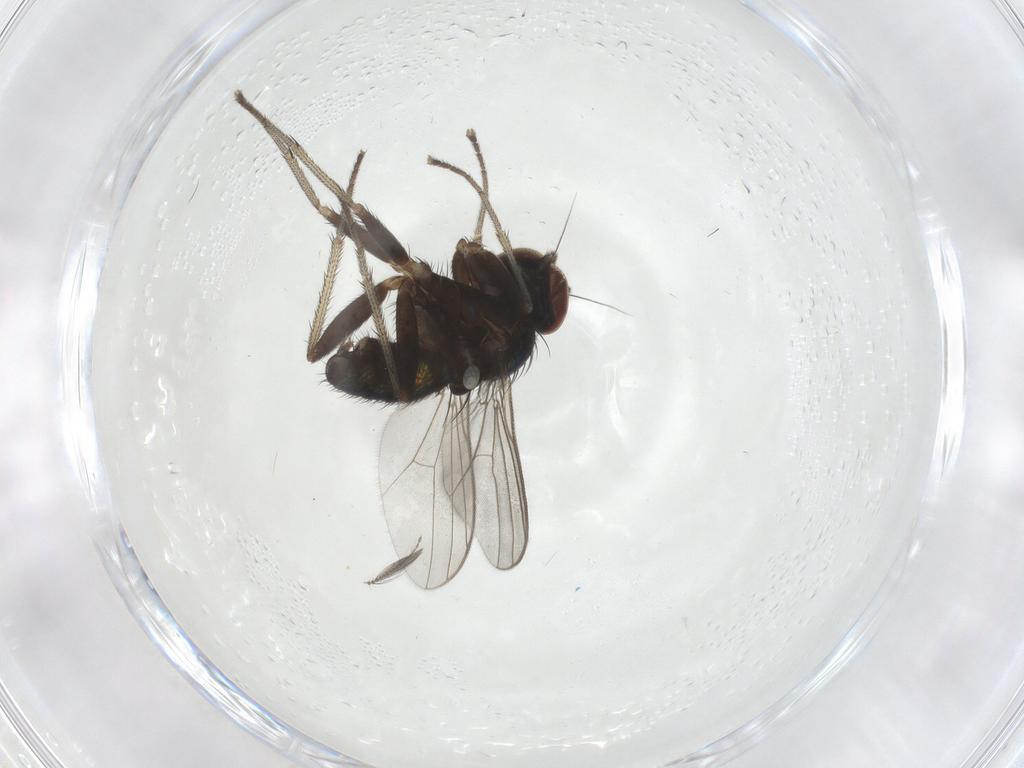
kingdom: Animalia
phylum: Arthropoda
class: Insecta
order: Diptera
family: Dolichopodidae
